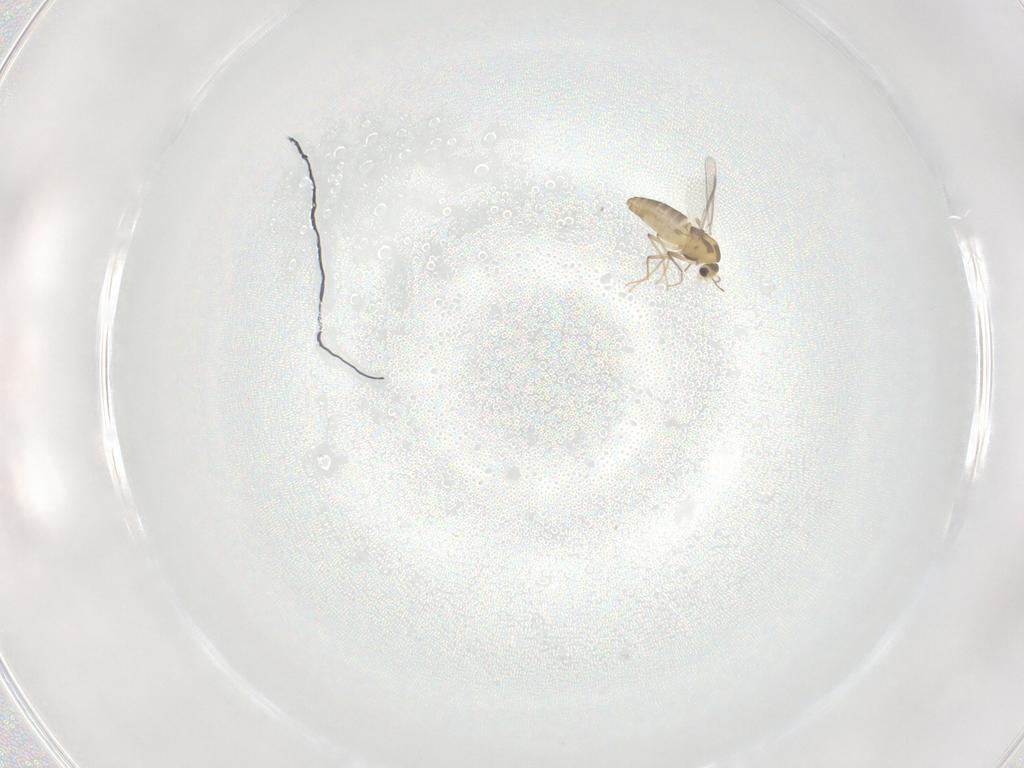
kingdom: Animalia
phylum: Arthropoda
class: Insecta
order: Diptera
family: Chironomidae
